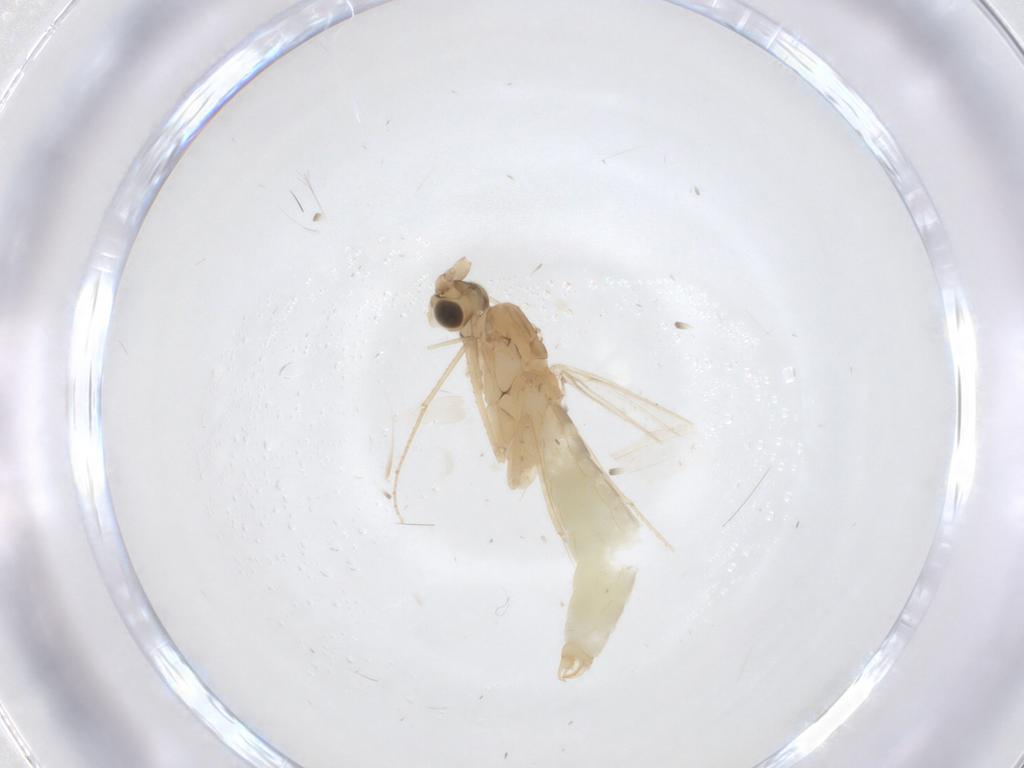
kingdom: Animalia
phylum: Arthropoda
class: Insecta
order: Trichoptera
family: Leptoceridae
